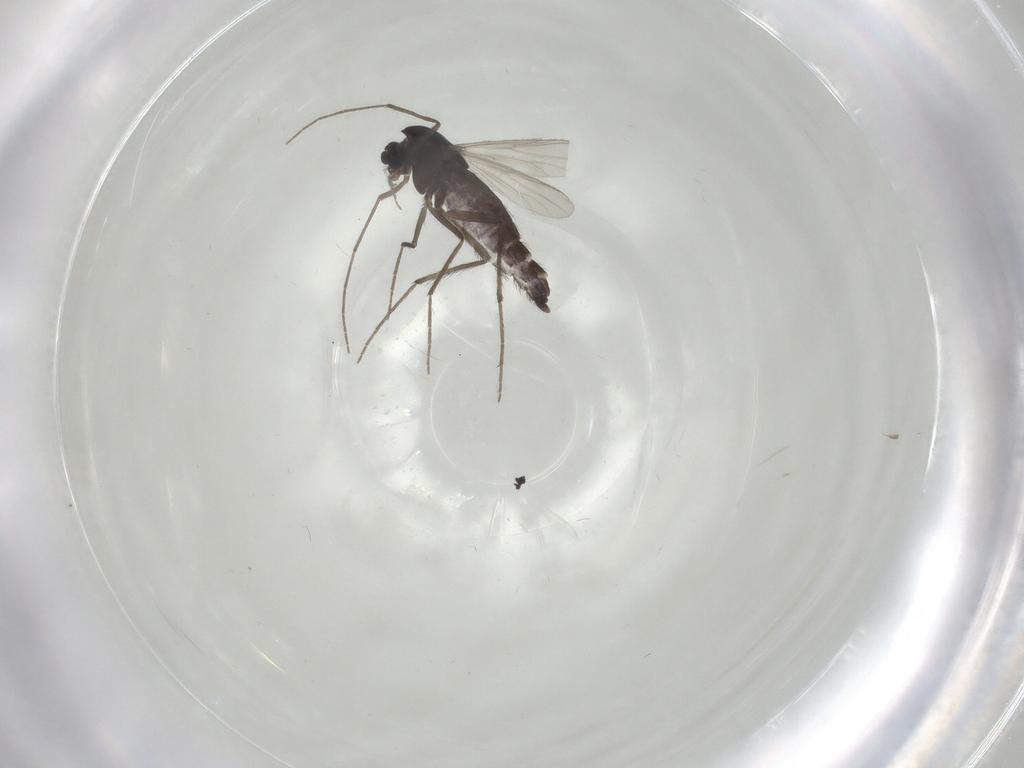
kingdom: Animalia
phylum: Arthropoda
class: Insecta
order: Diptera
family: Chironomidae
